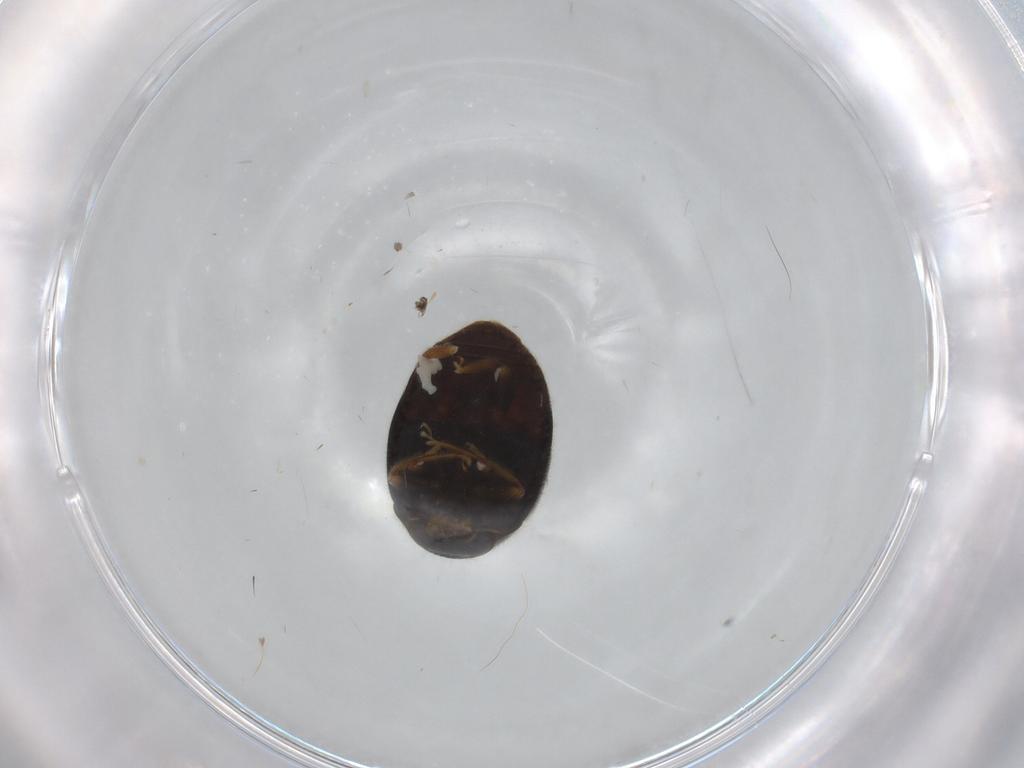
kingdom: Animalia
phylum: Arthropoda
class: Insecta
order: Coleoptera
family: Coccinellidae
